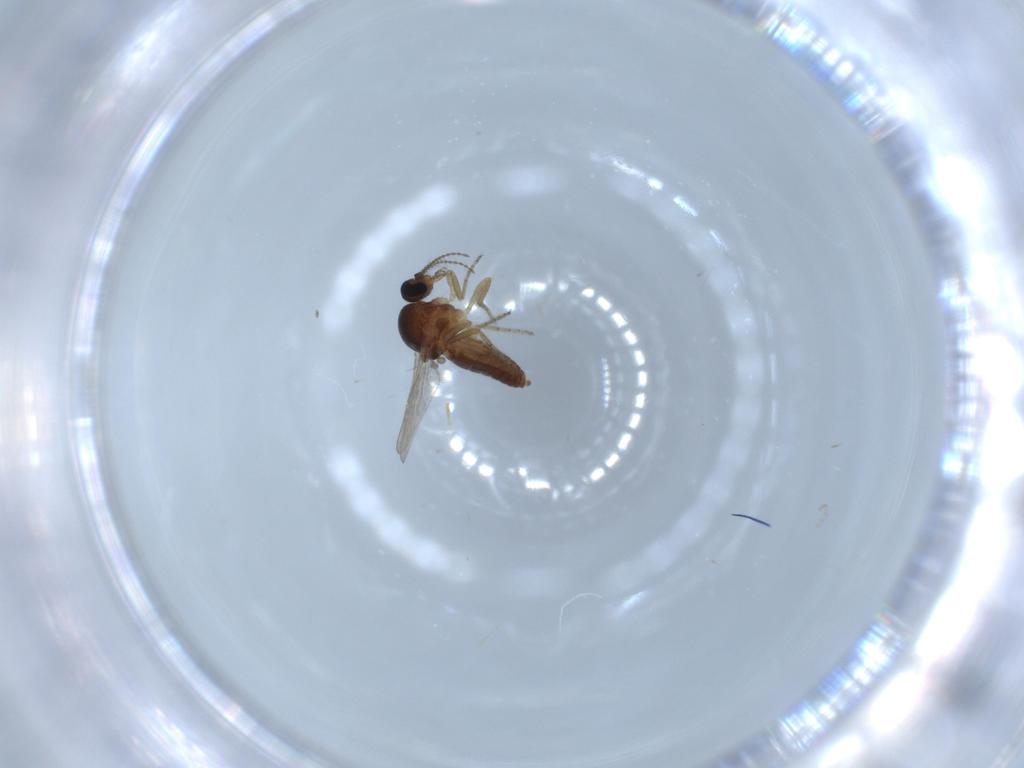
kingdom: Animalia
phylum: Arthropoda
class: Insecta
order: Diptera
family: Ceratopogonidae
